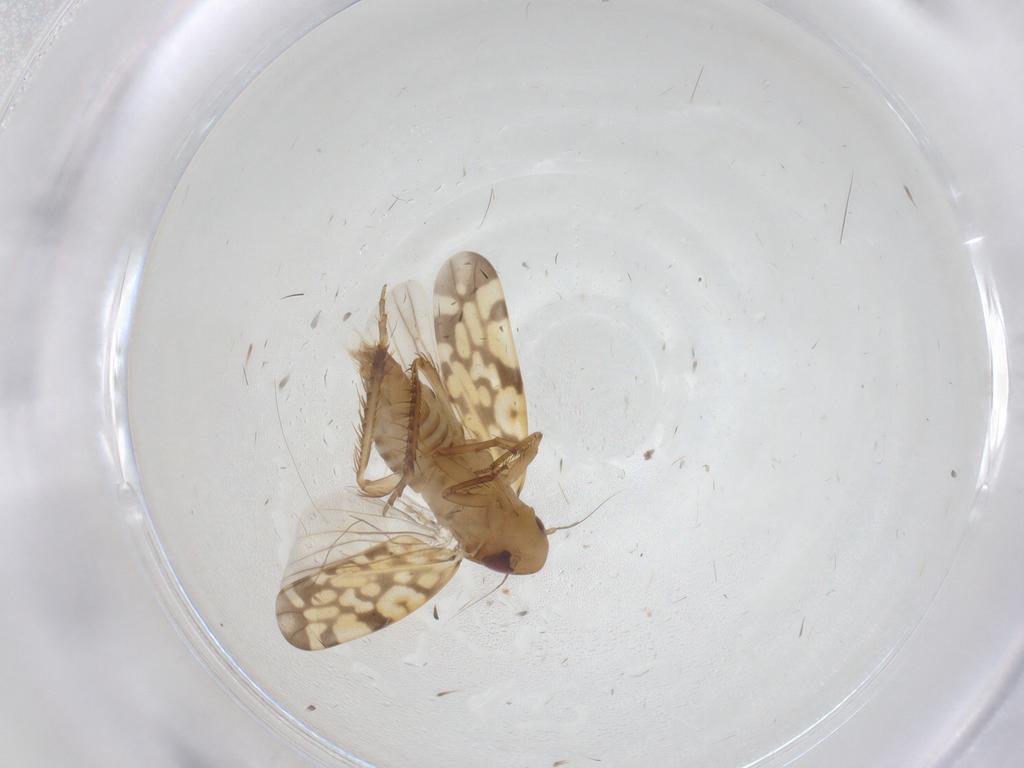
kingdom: Animalia
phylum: Arthropoda
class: Insecta
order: Hemiptera
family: Cicadellidae
